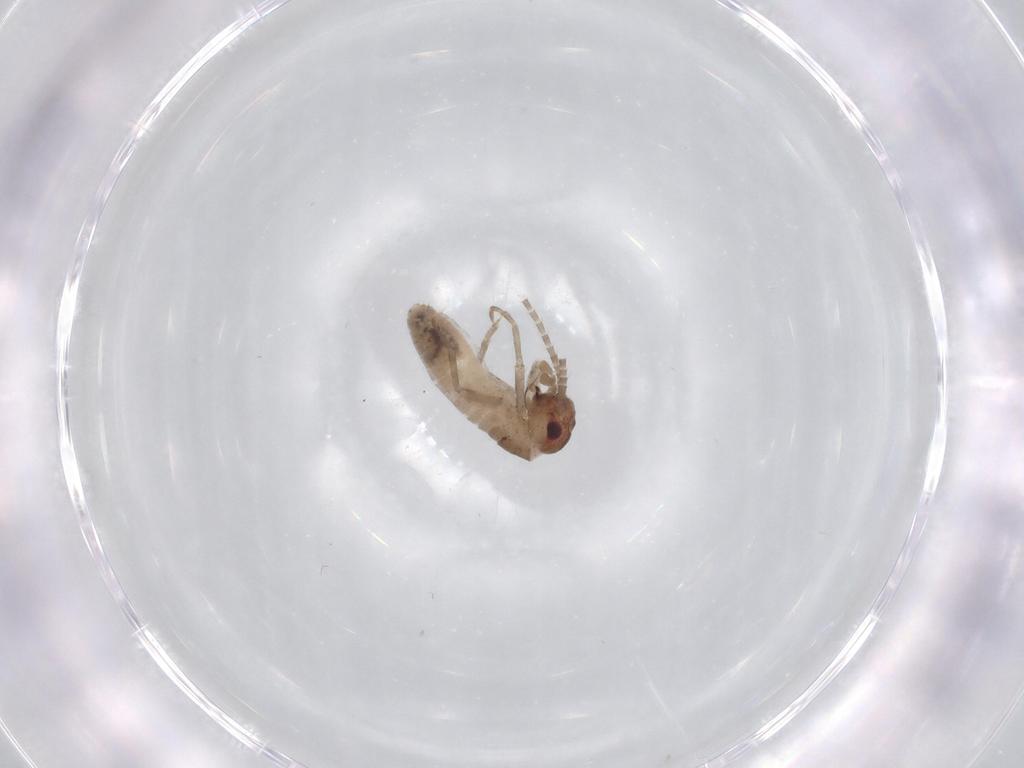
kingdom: Animalia
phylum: Arthropoda
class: Insecta
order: Orthoptera
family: Mogoplistidae
